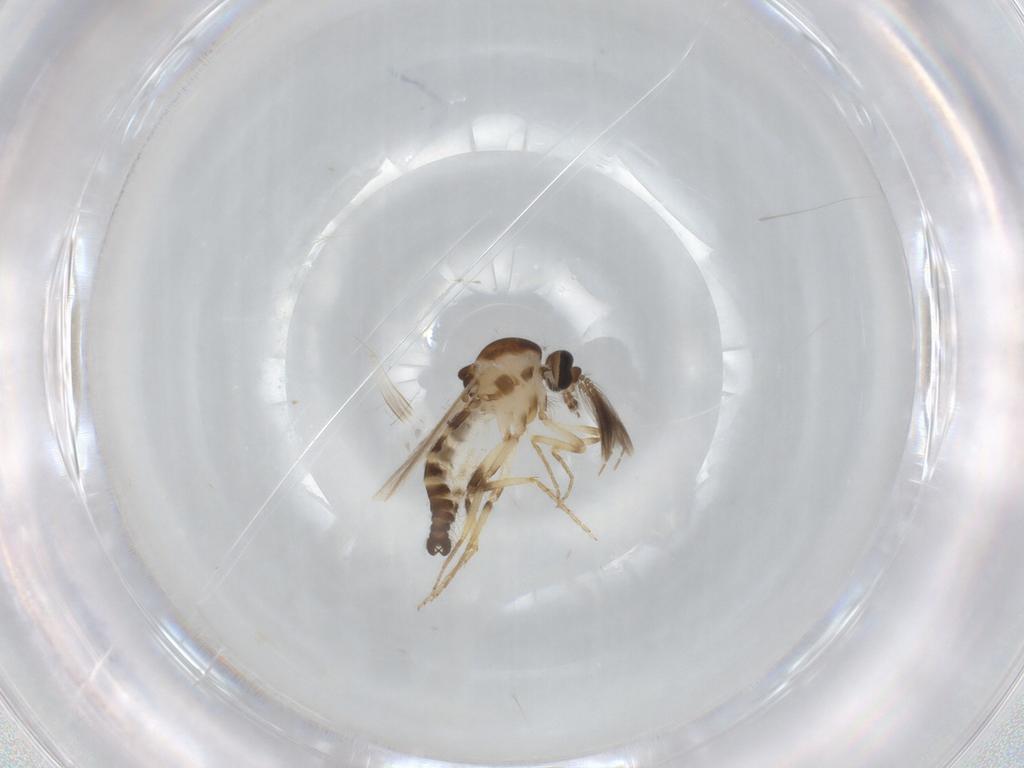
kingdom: Animalia
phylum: Arthropoda
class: Insecta
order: Diptera
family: Ceratopogonidae
